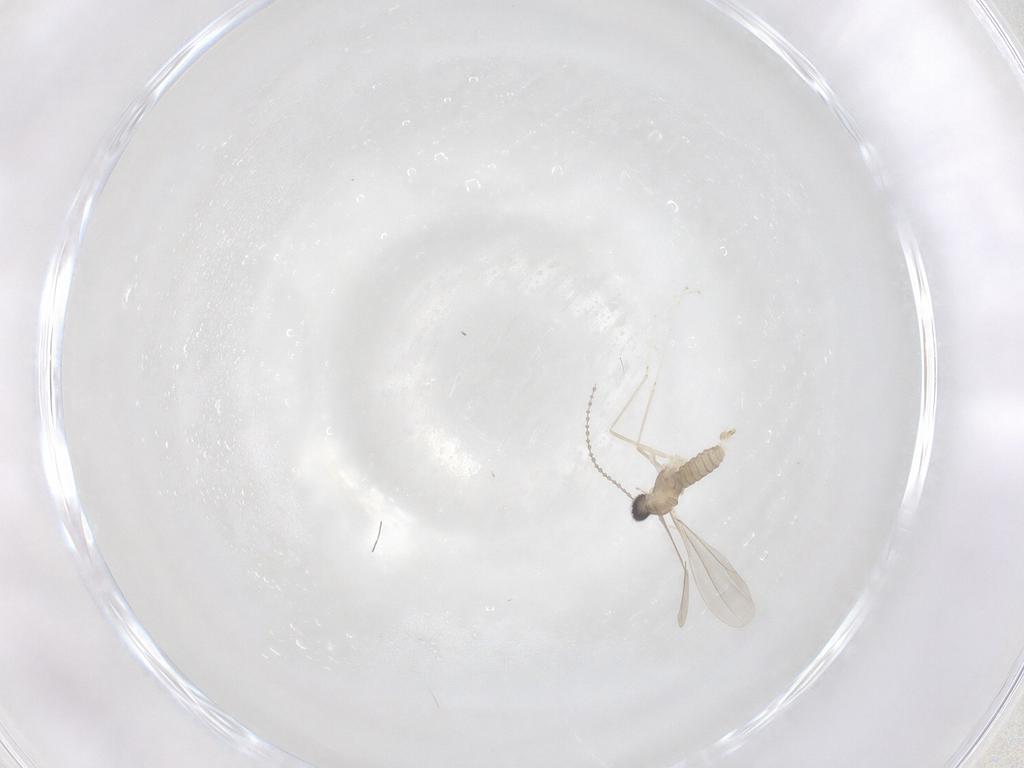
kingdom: Animalia
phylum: Arthropoda
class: Insecta
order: Diptera
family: Cecidomyiidae
